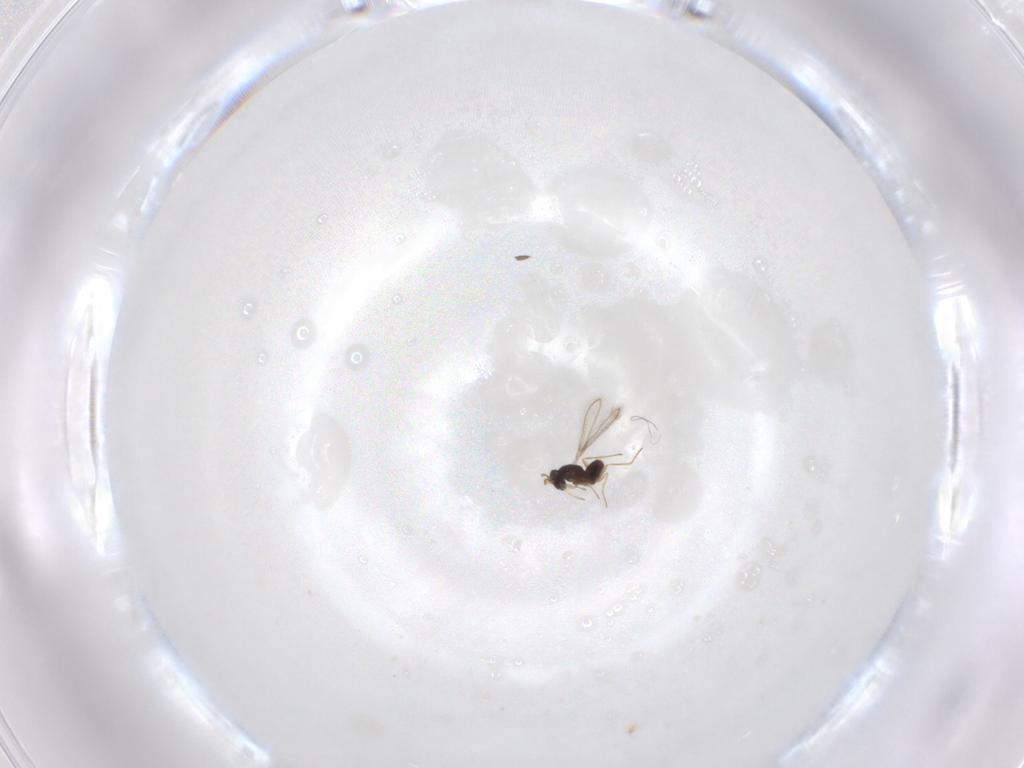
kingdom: Animalia
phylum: Arthropoda
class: Insecta
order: Hymenoptera
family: Braconidae
